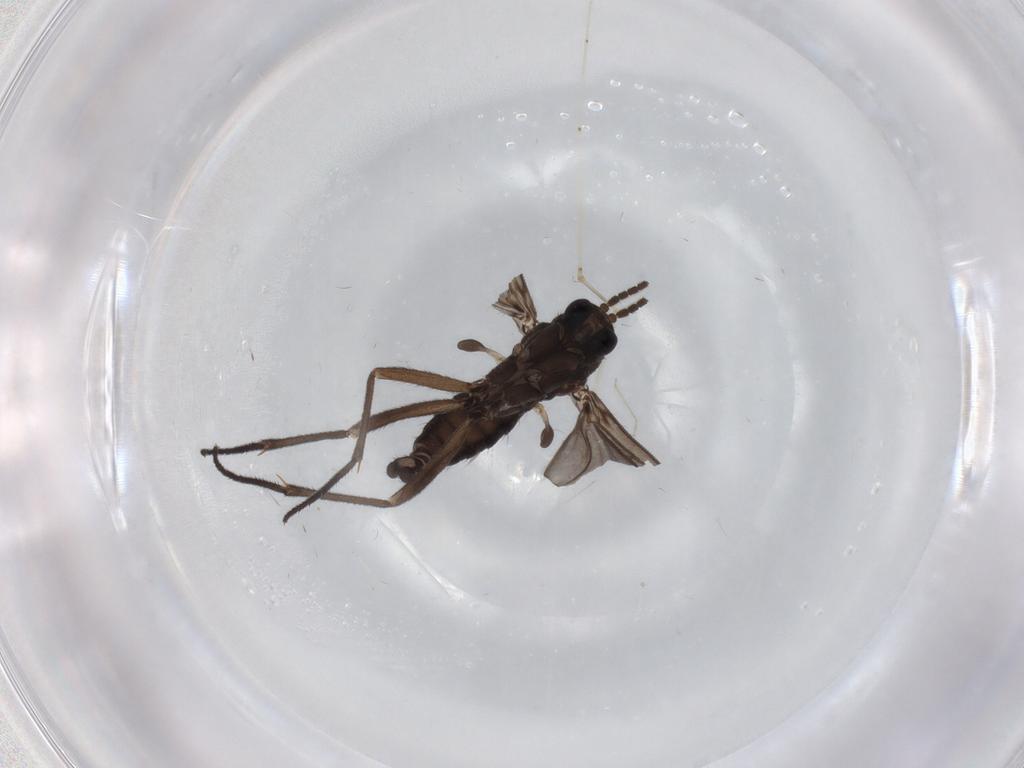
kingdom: Animalia
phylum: Arthropoda
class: Insecta
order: Diptera
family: Sciaridae
